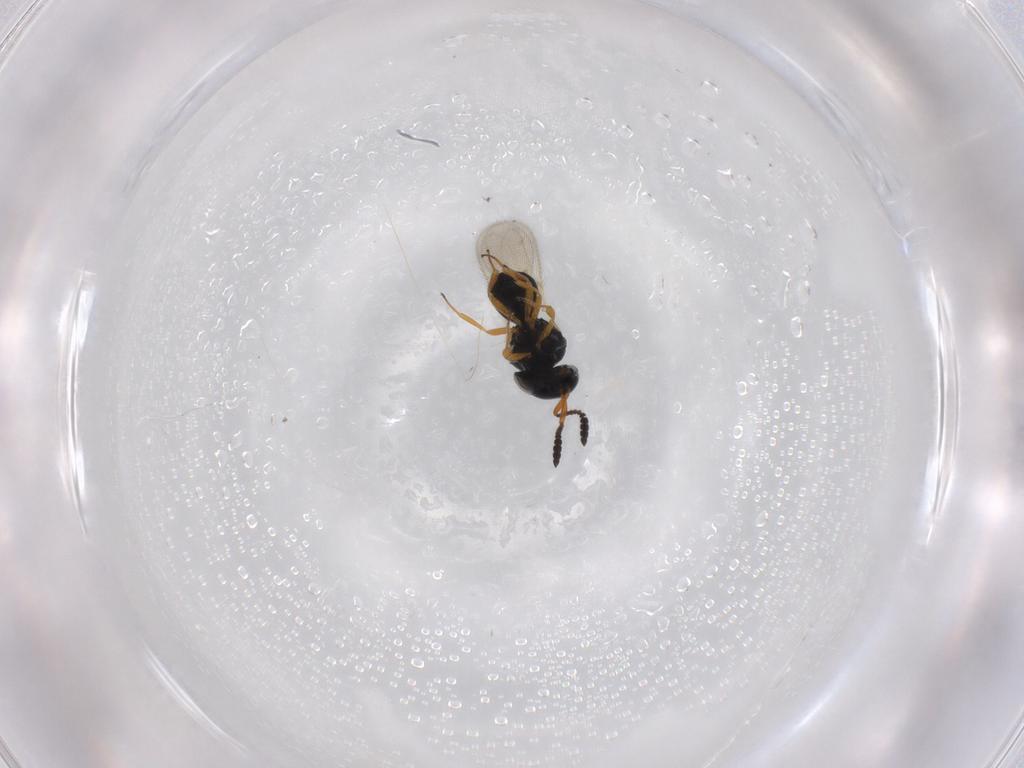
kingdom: Animalia
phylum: Arthropoda
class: Insecta
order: Hymenoptera
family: Scelionidae
